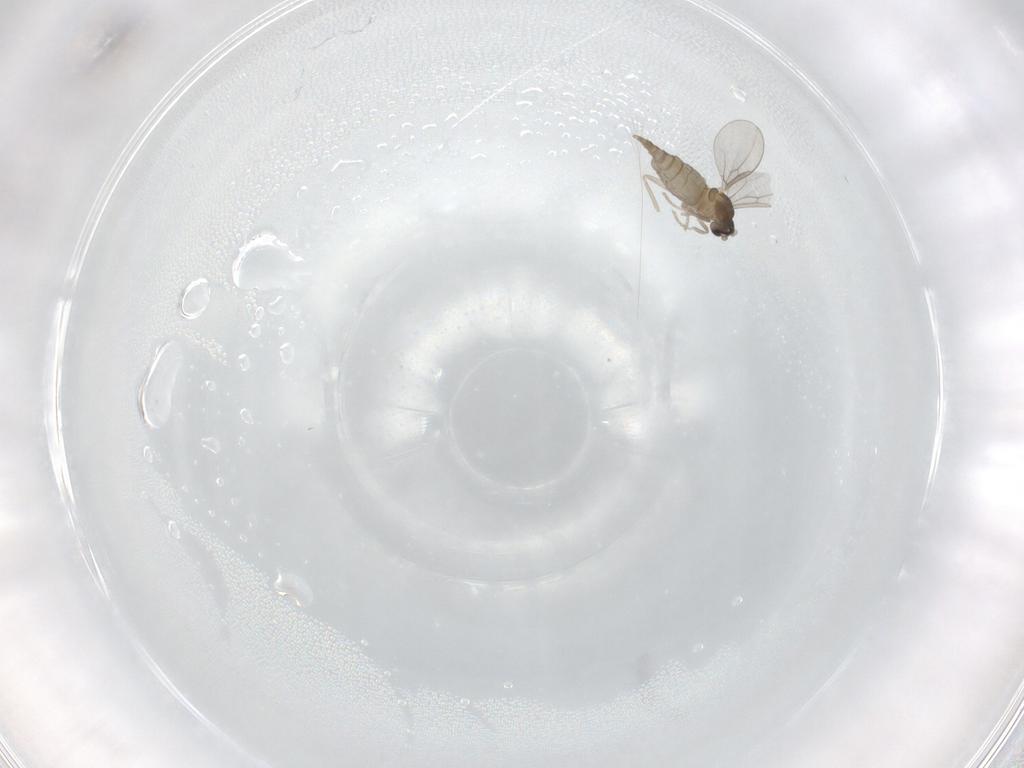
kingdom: Animalia
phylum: Arthropoda
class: Insecta
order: Diptera
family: Cecidomyiidae
